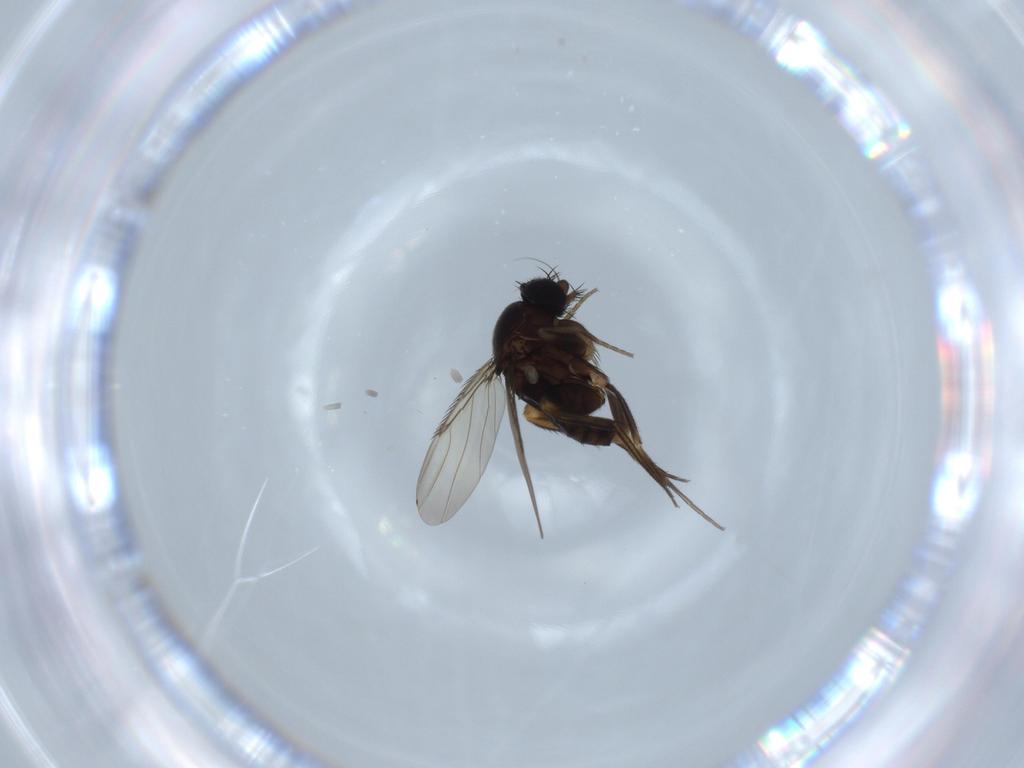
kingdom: Animalia
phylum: Arthropoda
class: Insecta
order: Diptera
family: Phoridae
